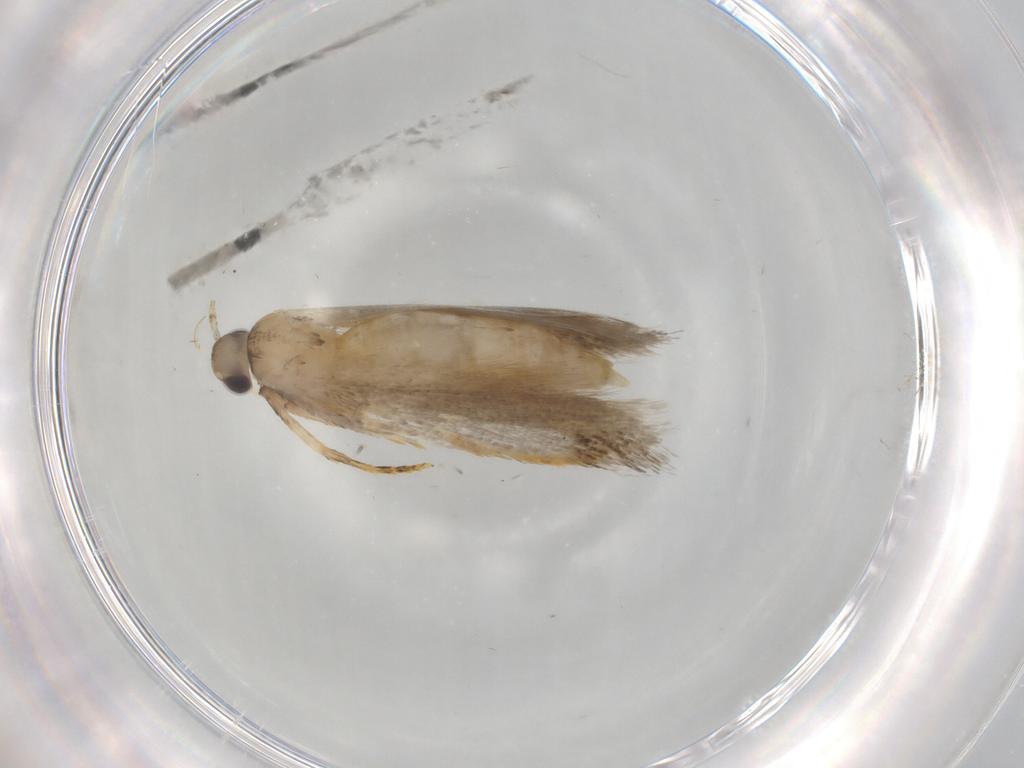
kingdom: Animalia
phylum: Arthropoda
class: Insecta
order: Lepidoptera
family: Autostichidae
